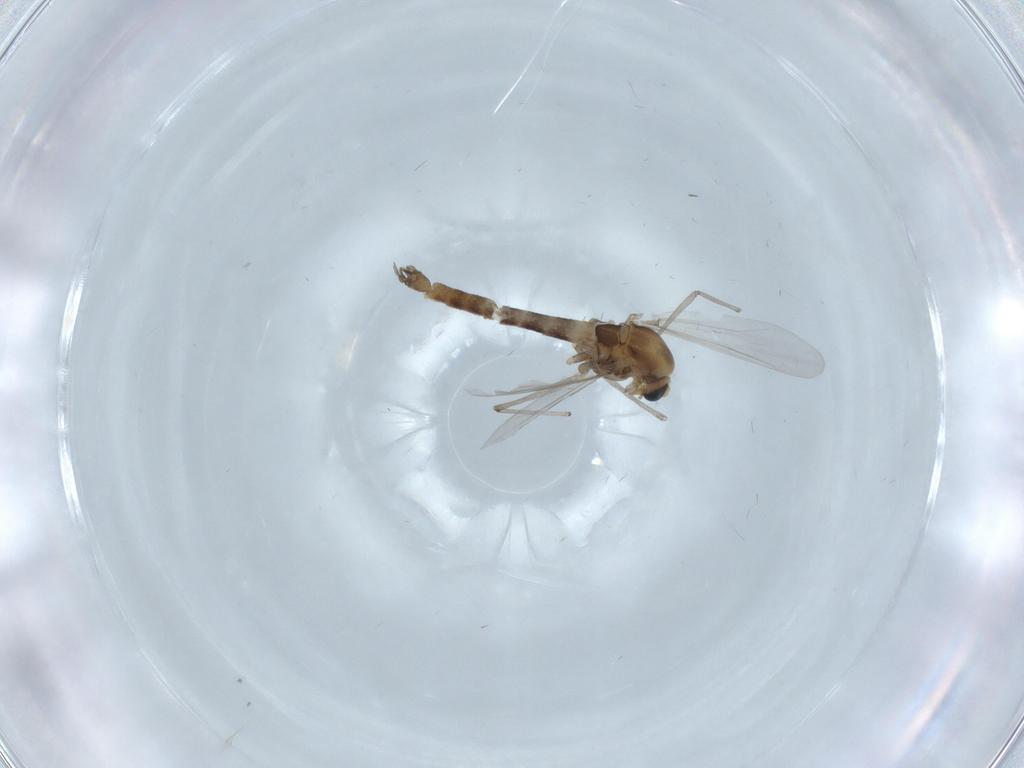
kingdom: Animalia
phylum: Arthropoda
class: Insecta
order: Diptera
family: Chironomidae
